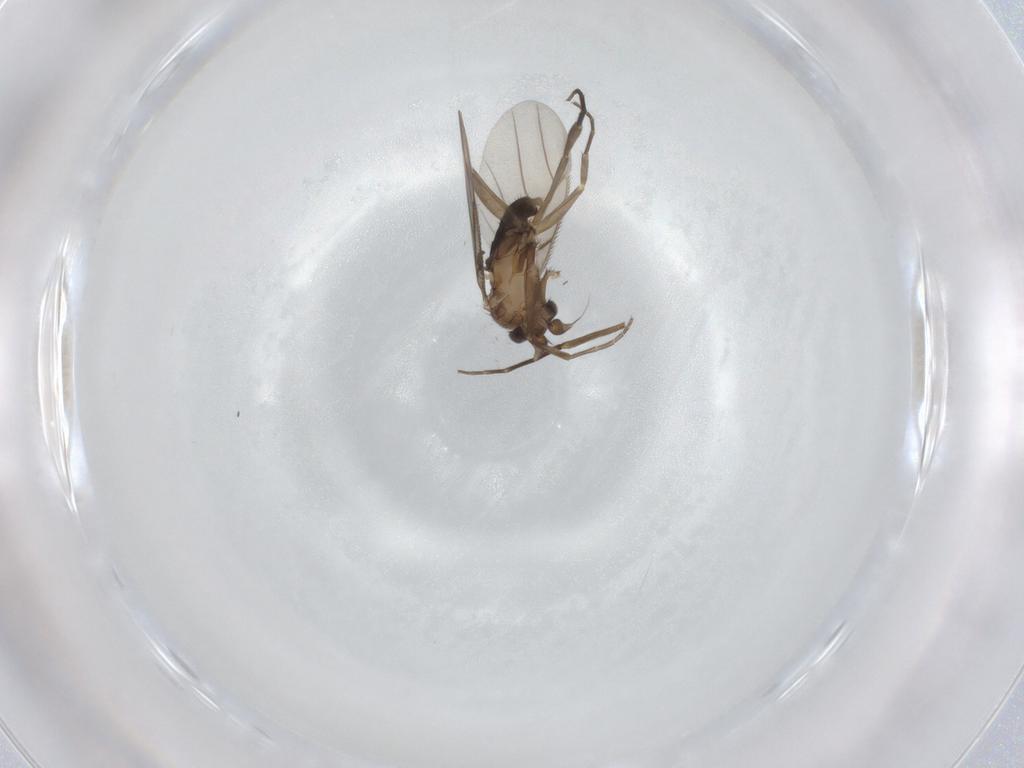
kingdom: Animalia
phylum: Arthropoda
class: Insecta
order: Diptera
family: Phoridae
